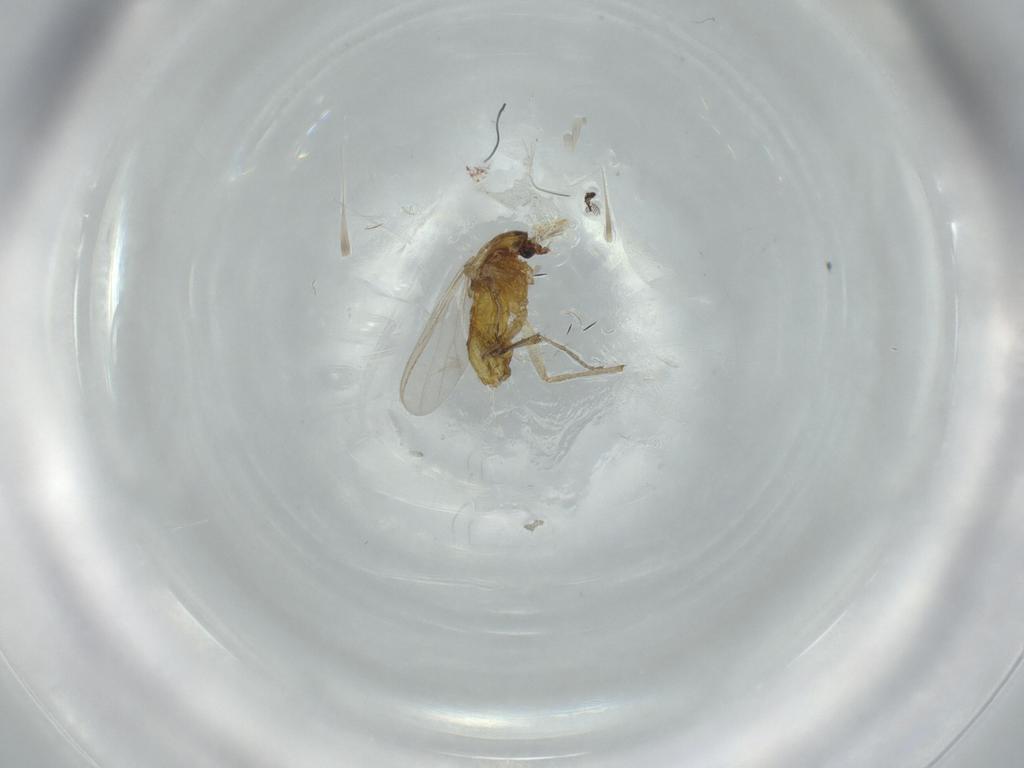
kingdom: Animalia
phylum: Arthropoda
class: Insecta
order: Diptera
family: Chironomidae
